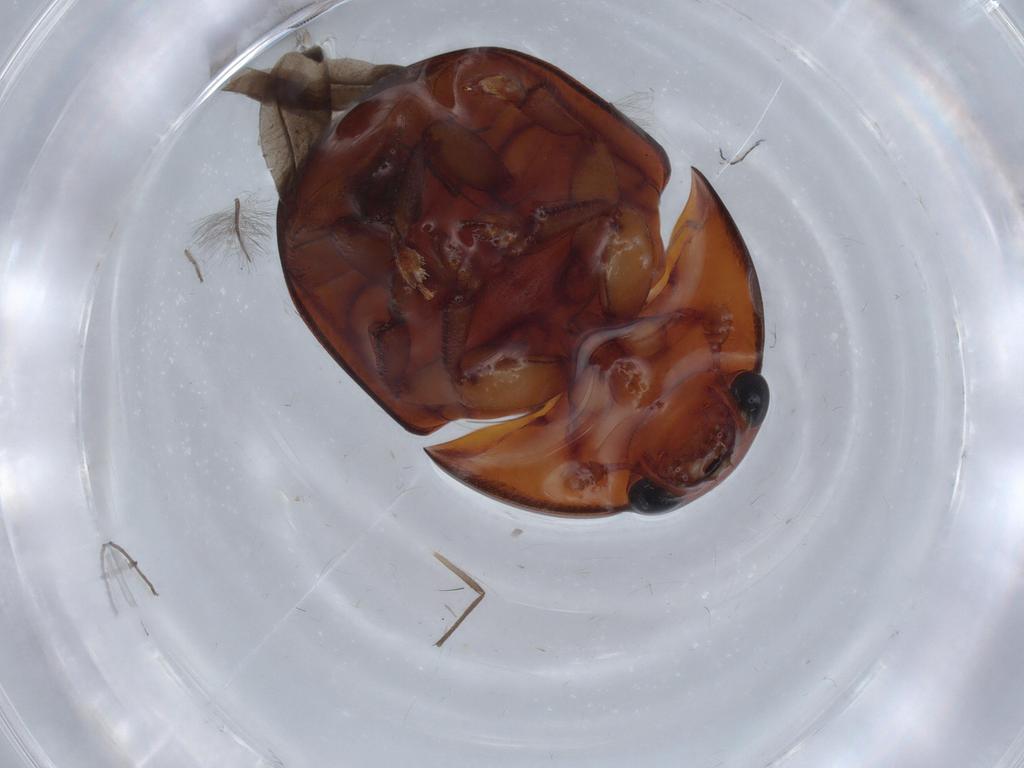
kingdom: Animalia
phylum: Arthropoda
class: Insecta
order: Coleoptera
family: Nitidulidae
